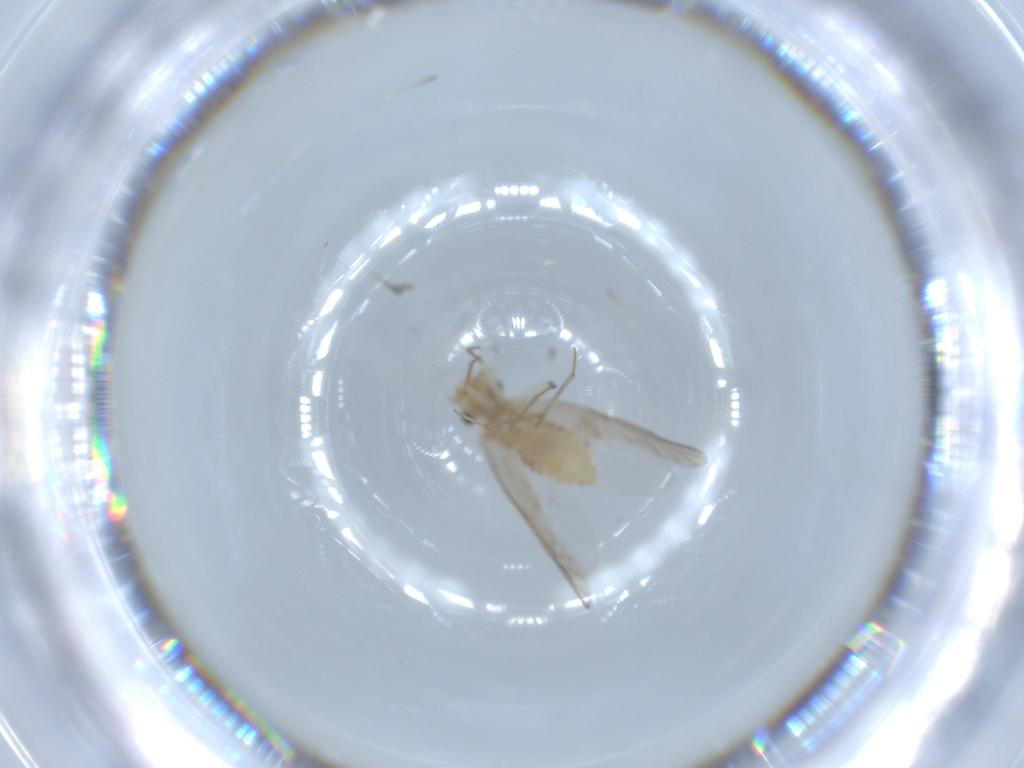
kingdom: Animalia
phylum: Arthropoda
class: Insecta
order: Psocodea
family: Lachesillidae
